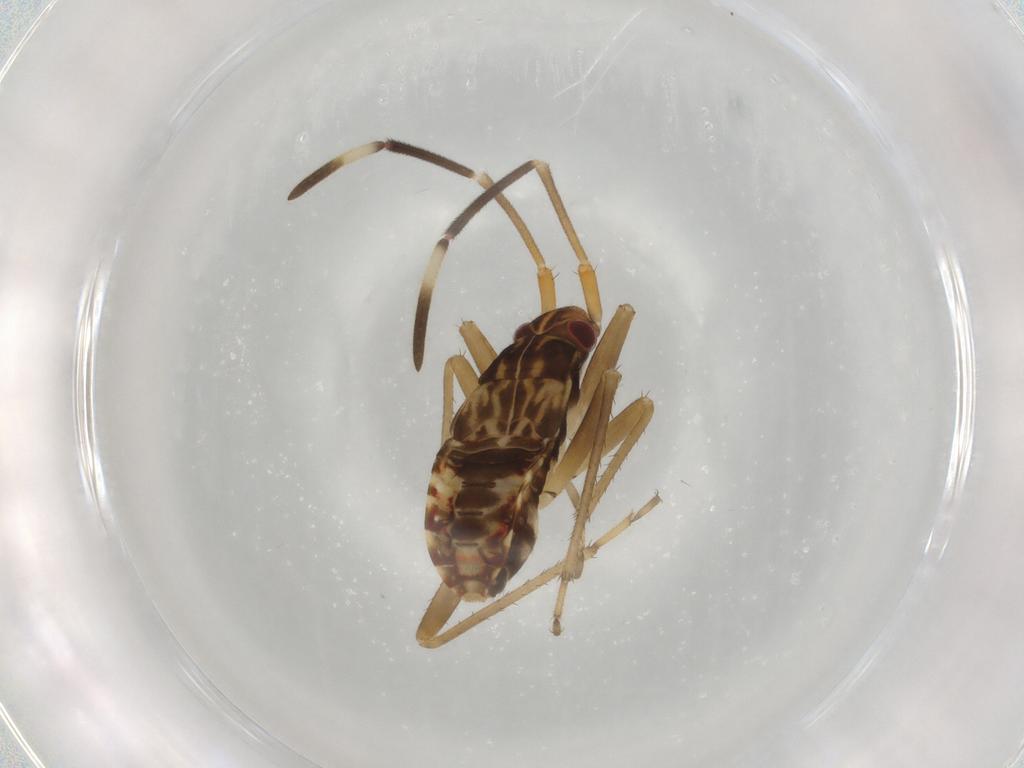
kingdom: Animalia
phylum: Arthropoda
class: Insecta
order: Hemiptera
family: Rhyparochromidae
